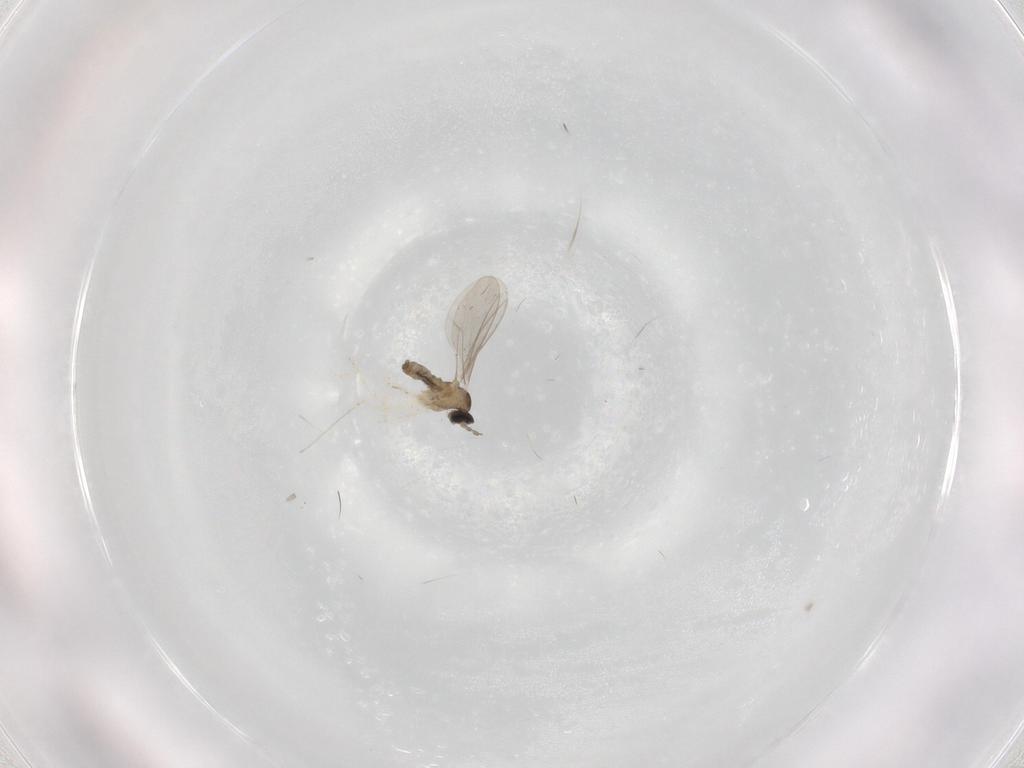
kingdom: Animalia
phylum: Arthropoda
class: Insecta
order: Diptera
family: Cecidomyiidae
